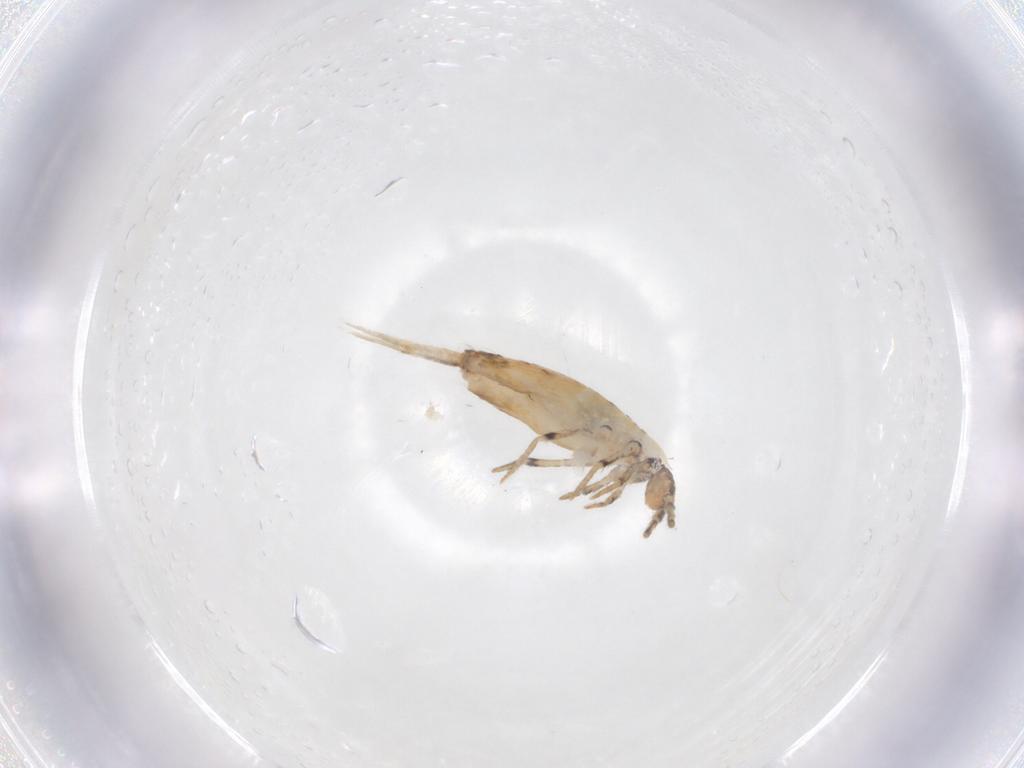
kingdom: Animalia
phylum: Arthropoda
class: Collembola
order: Entomobryomorpha
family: Entomobryidae
